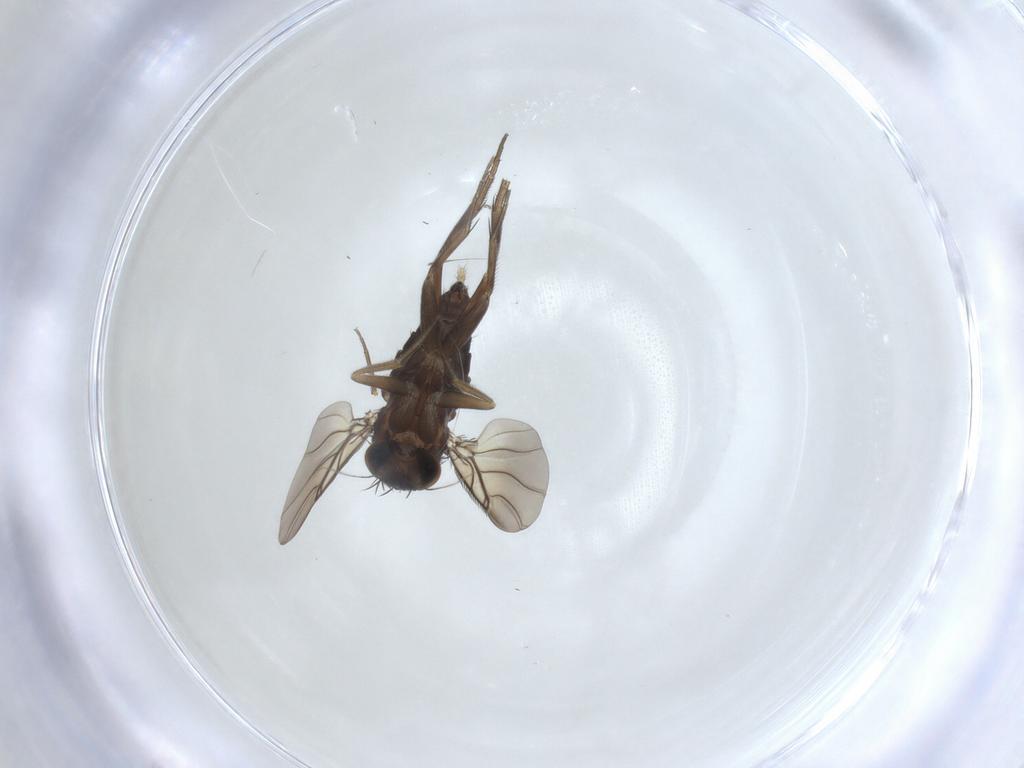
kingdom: Animalia
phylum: Arthropoda
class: Insecta
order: Diptera
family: Phoridae
